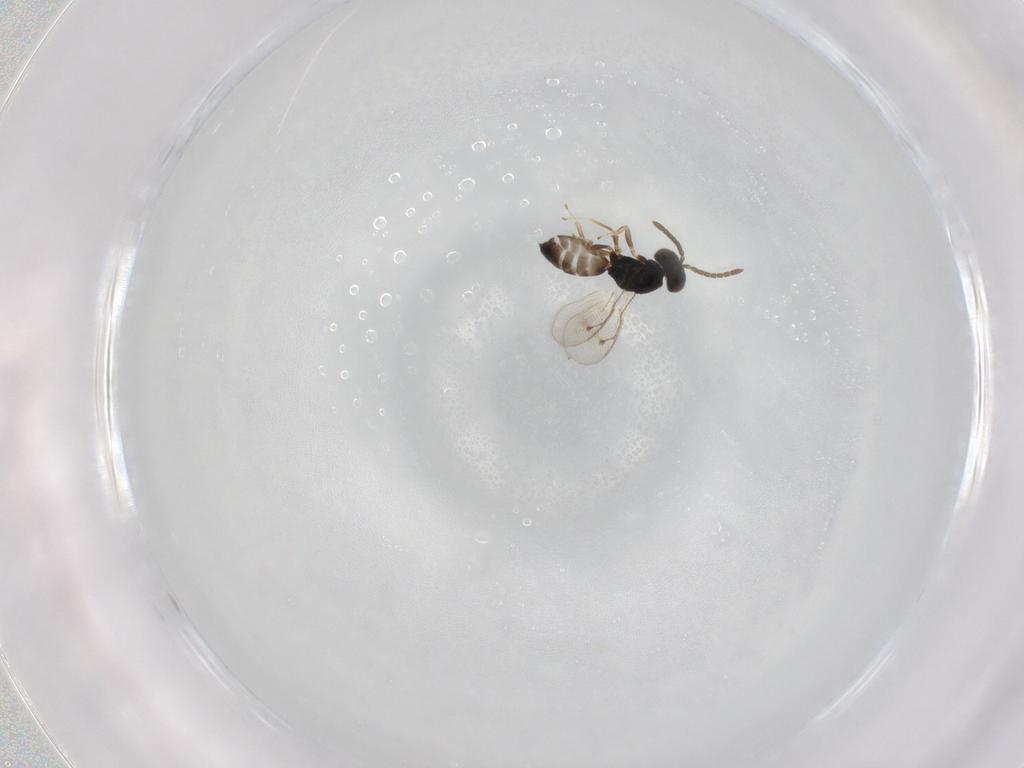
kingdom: Animalia
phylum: Arthropoda
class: Insecta
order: Hymenoptera
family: Pteromalidae
